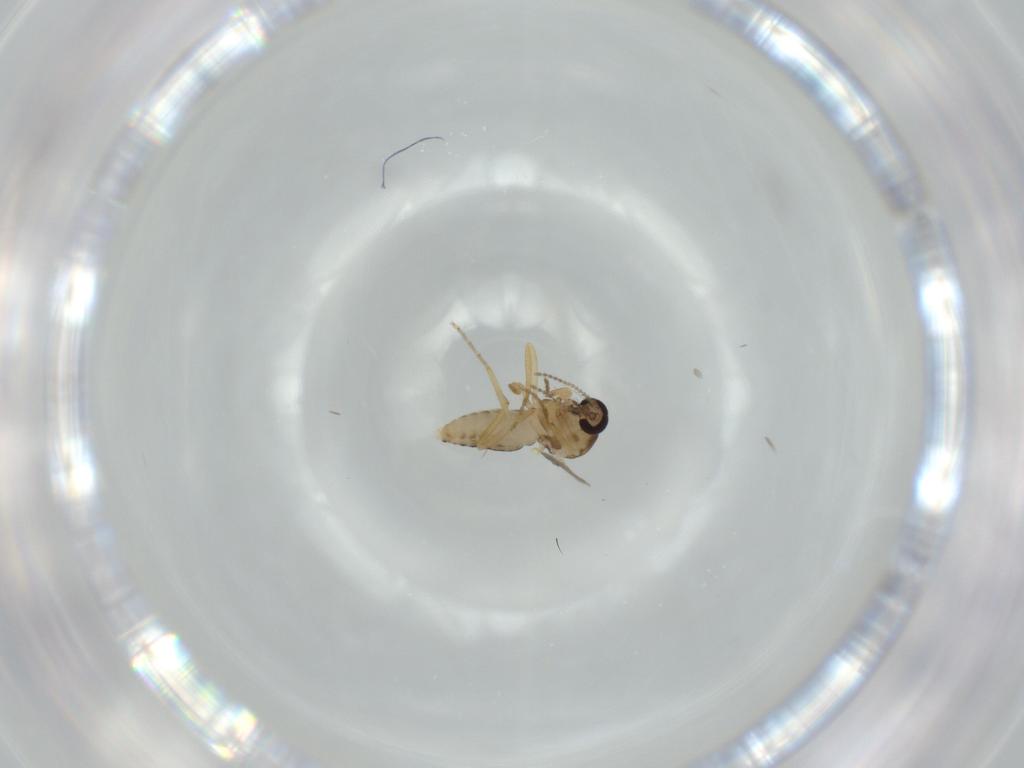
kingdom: Animalia
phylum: Arthropoda
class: Insecta
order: Diptera
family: Ceratopogonidae
